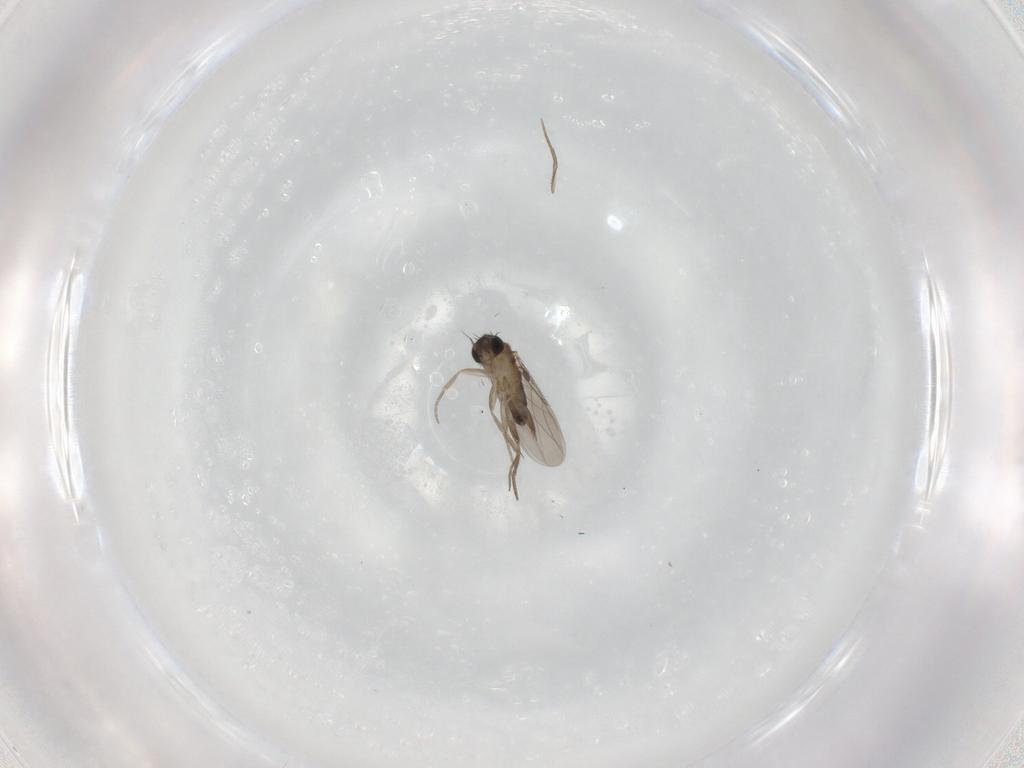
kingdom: Animalia
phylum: Arthropoda
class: Insecta
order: Diptera
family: Phoridae
